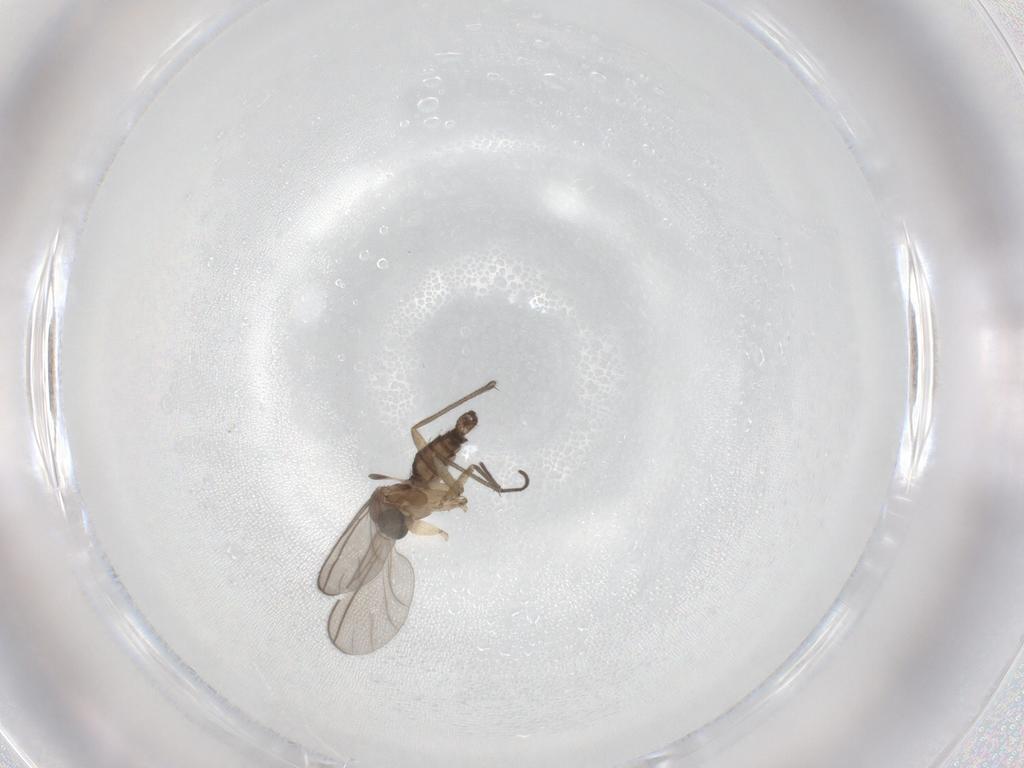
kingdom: Animalia
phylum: Arthropoda
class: Insecta
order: Diptera
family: Sciaridae
